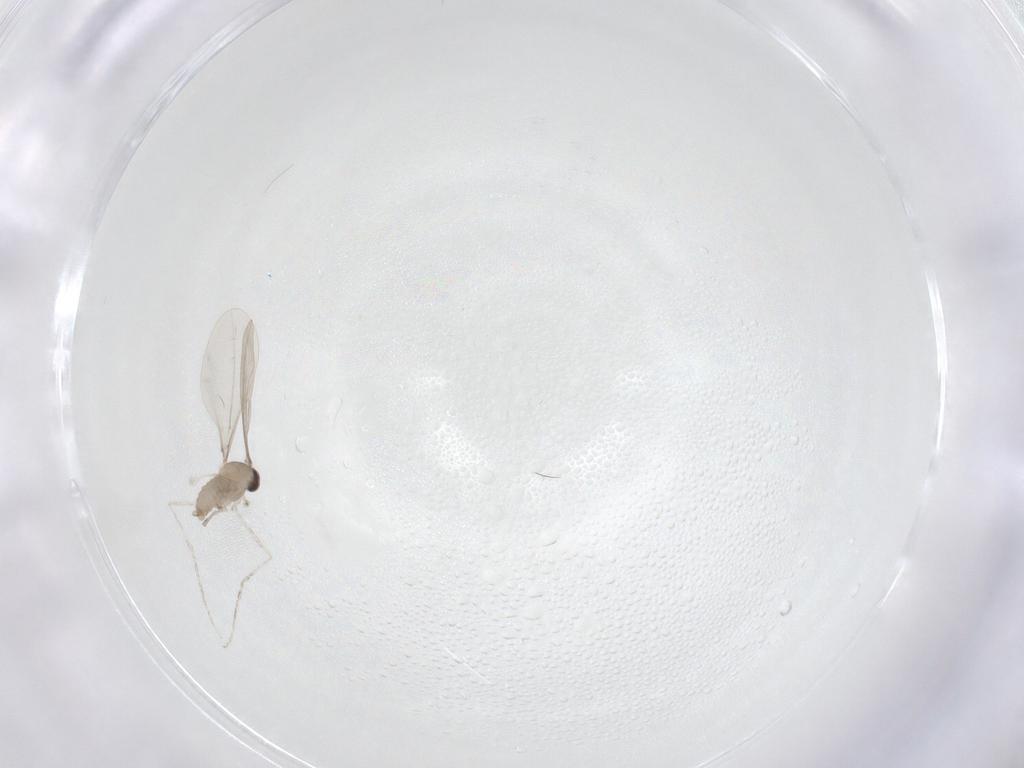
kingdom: Animalia
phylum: Arthropoda
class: Insecta
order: Diptera
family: Cecidomyiidae
